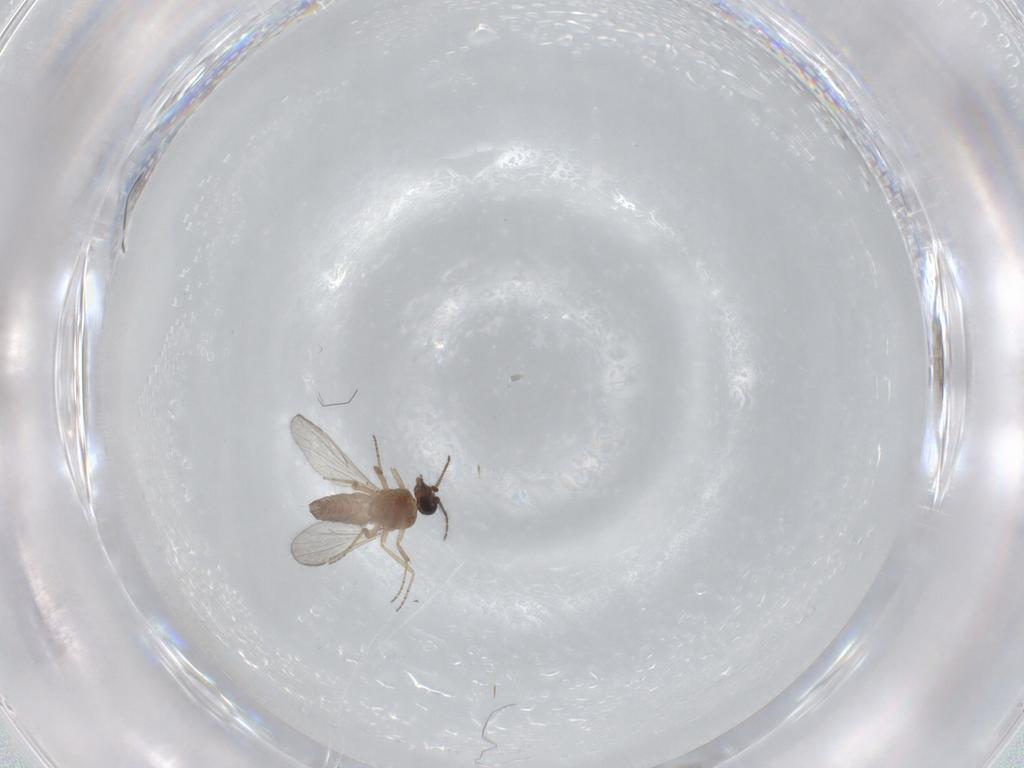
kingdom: Animalia
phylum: Arthropoda
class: Insecta
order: Diptera
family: Ceratopogonidae
